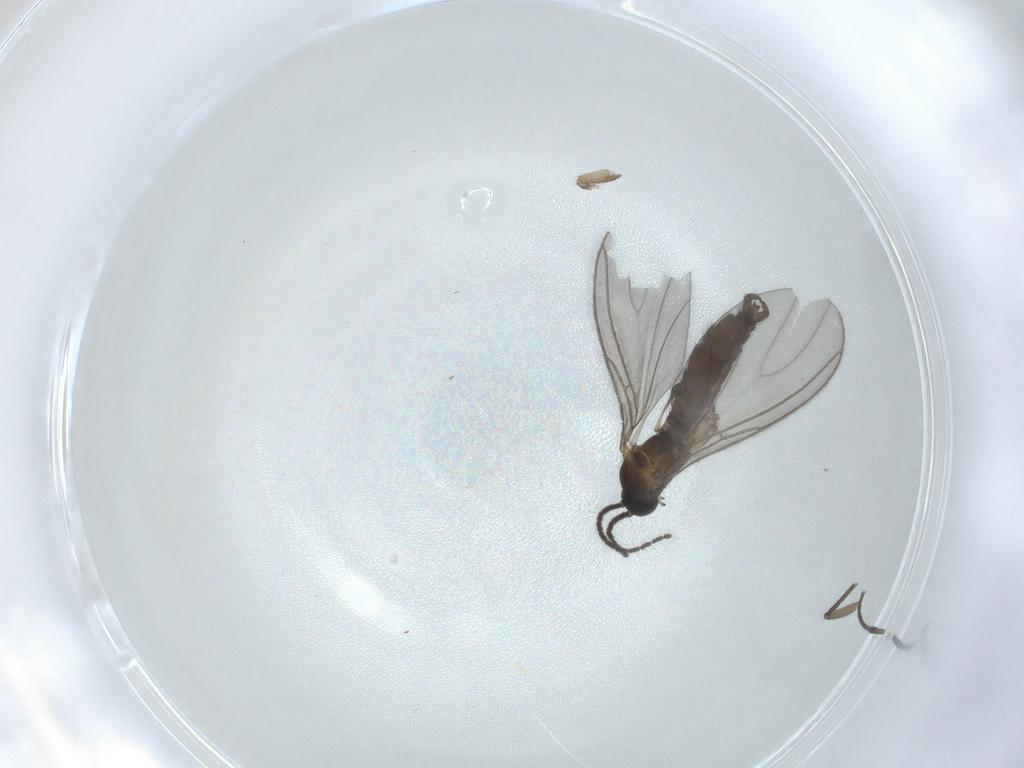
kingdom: Animalia
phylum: Arthropoda
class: Insecta
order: Diptera
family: Sciaridae
